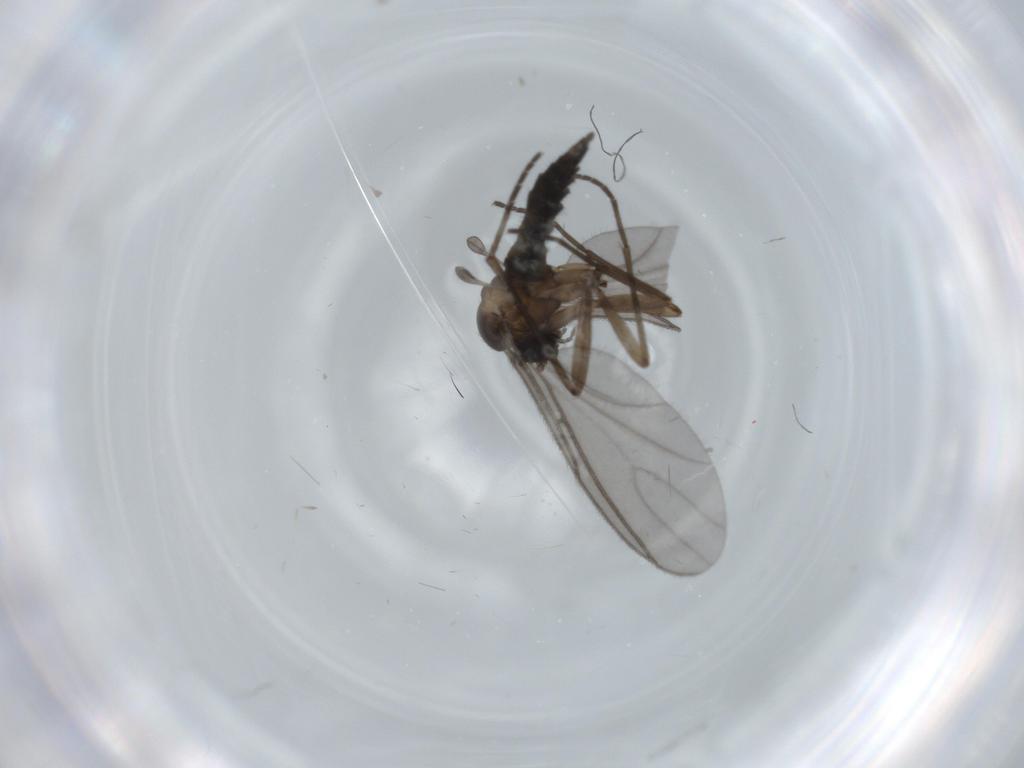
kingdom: Animalia
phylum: Arthropoda
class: Insecta
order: Diptera
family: Sciaridae
